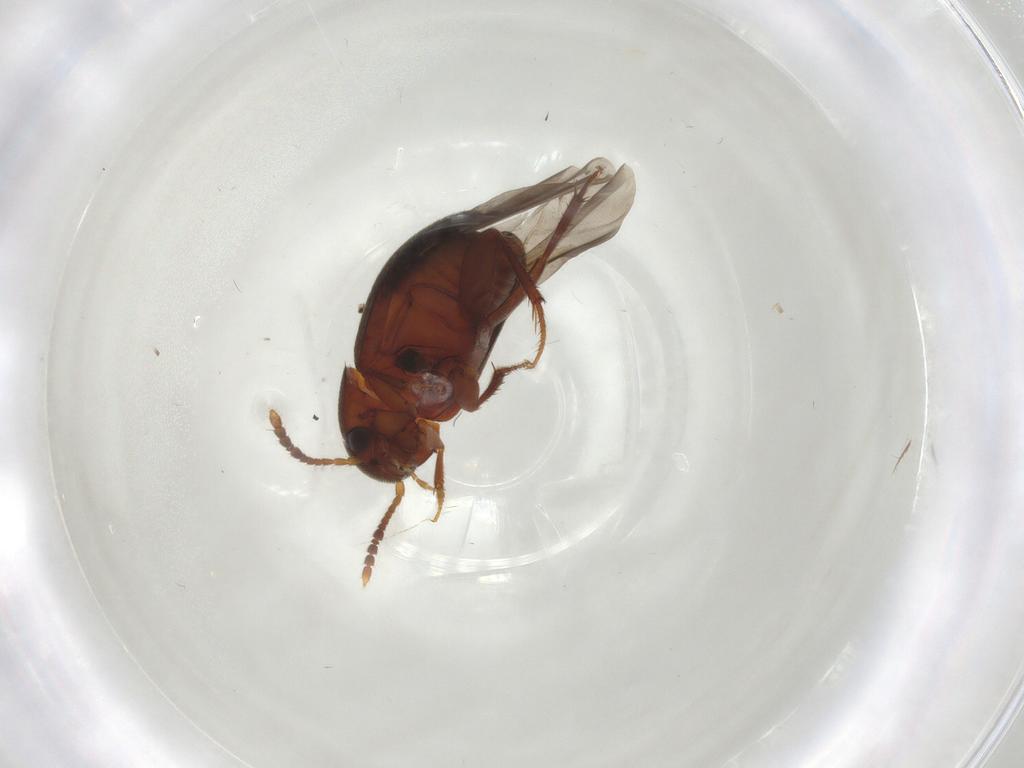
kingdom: Animalia
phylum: Arthropoda
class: Insecta
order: Coleoptera
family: Leiodidae
